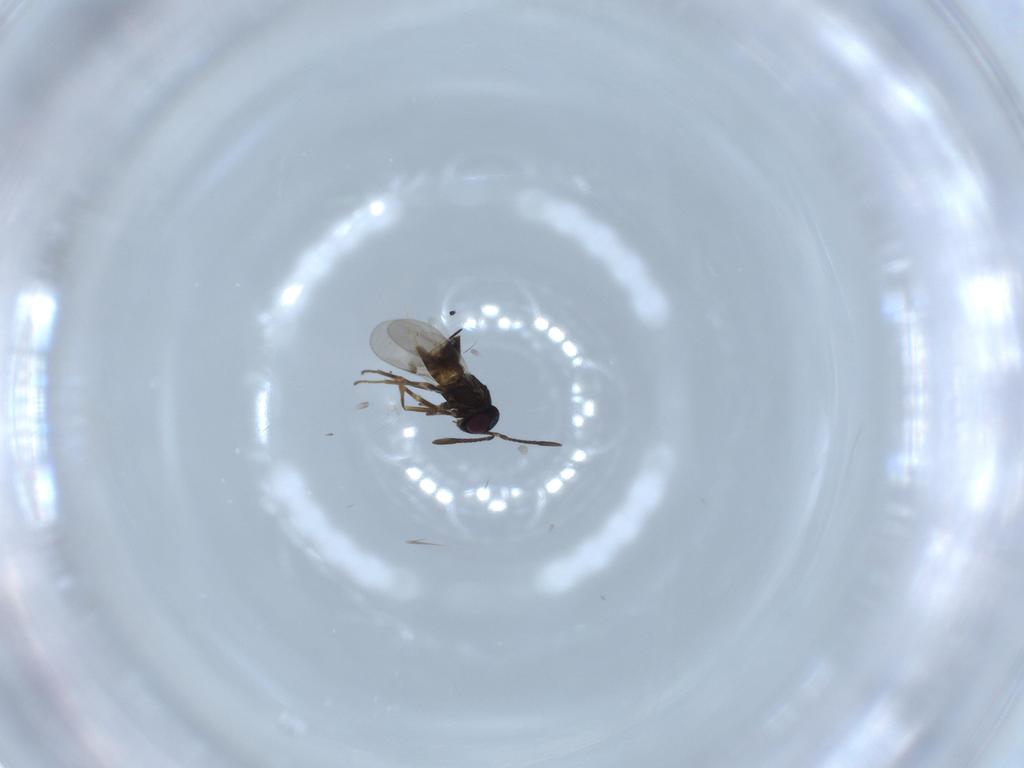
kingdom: Animalia
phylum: Arthropoda
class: Insecta
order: Hymenoptera
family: Encyrtidae
